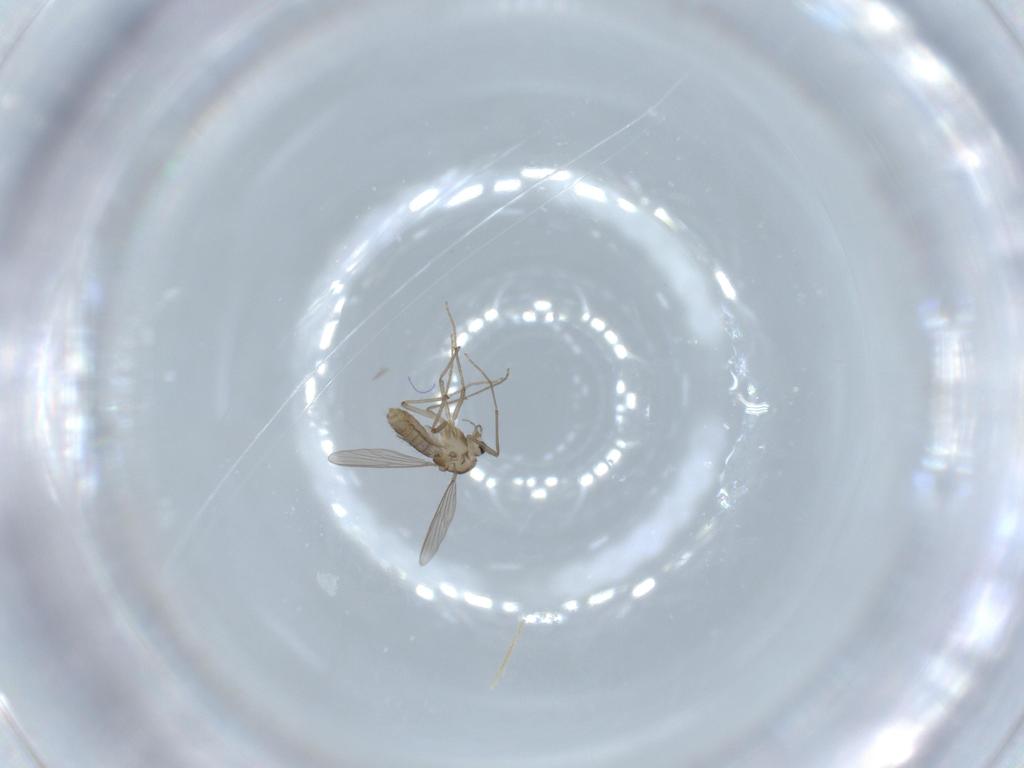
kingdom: Animalia
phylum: Arthropoda
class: Insecta
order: Diptera
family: Chironomidae
